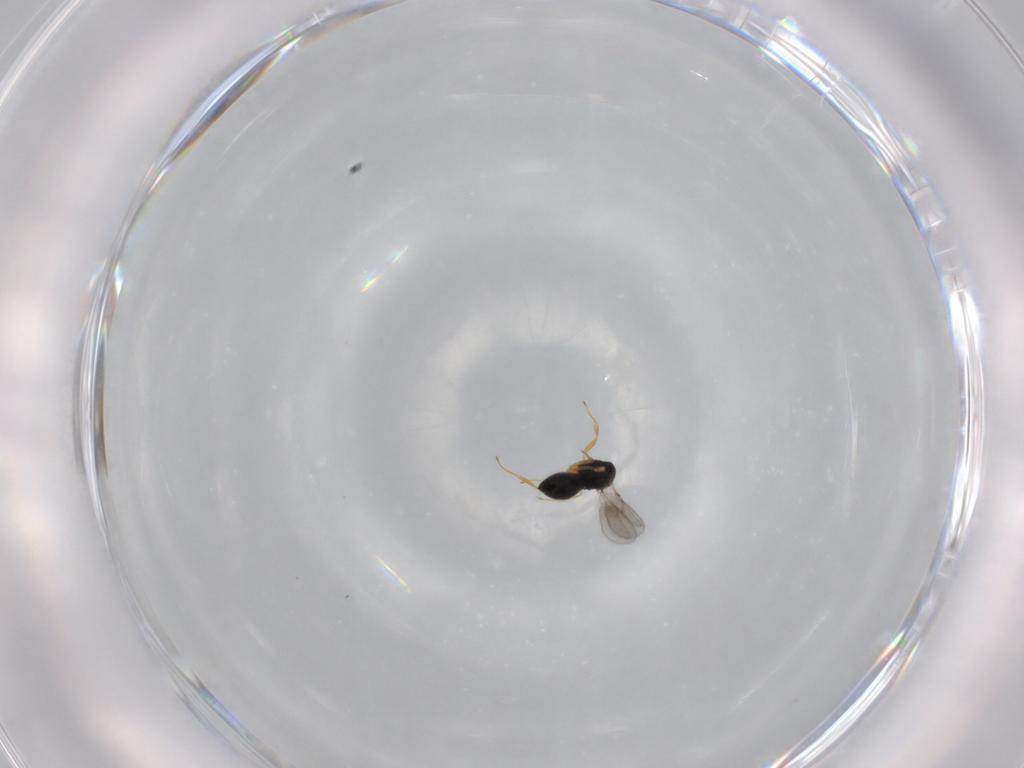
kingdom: Animalia
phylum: Arthropoda
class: Insecta
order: Hymenoptera
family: Scelionidae
